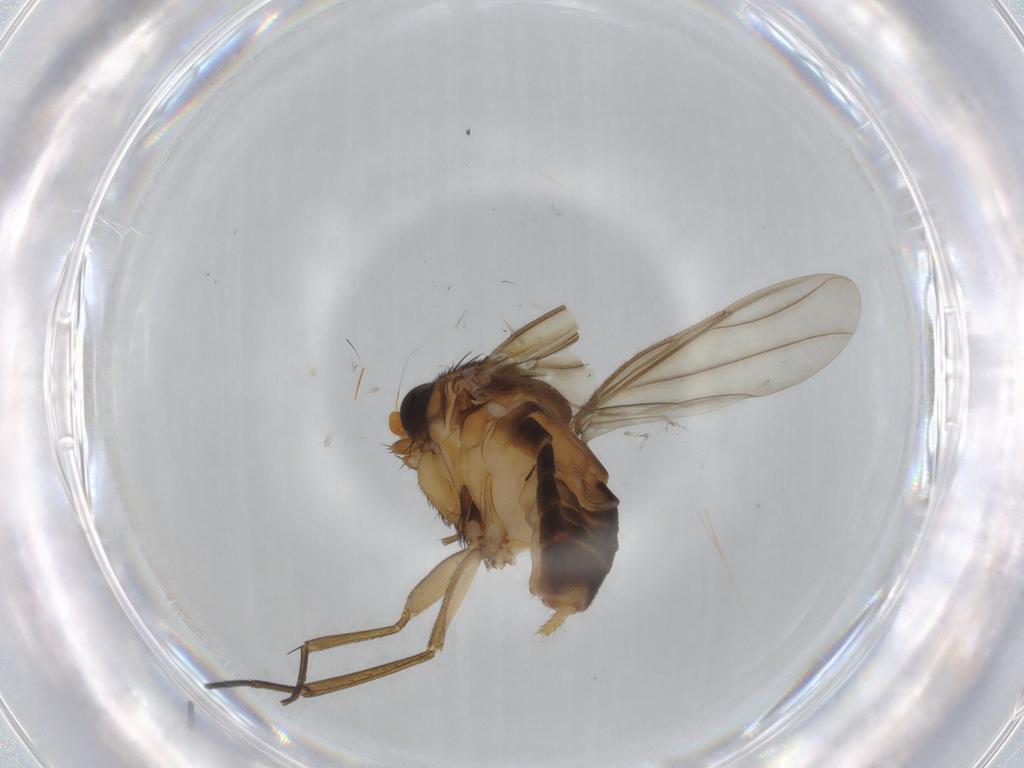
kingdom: Animalia
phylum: Arthropoda
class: Insecta
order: Diptera
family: Phoridae
